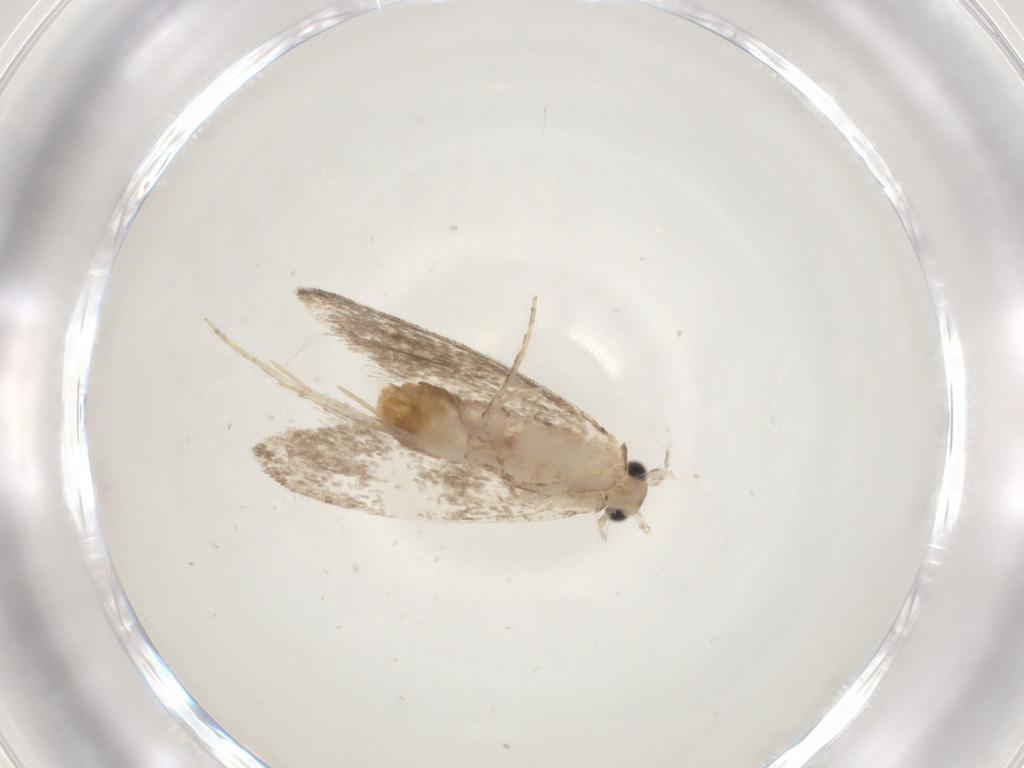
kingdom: Animalia
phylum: Arthropoda
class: Insecta
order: Lepidoptera
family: Tineidae
